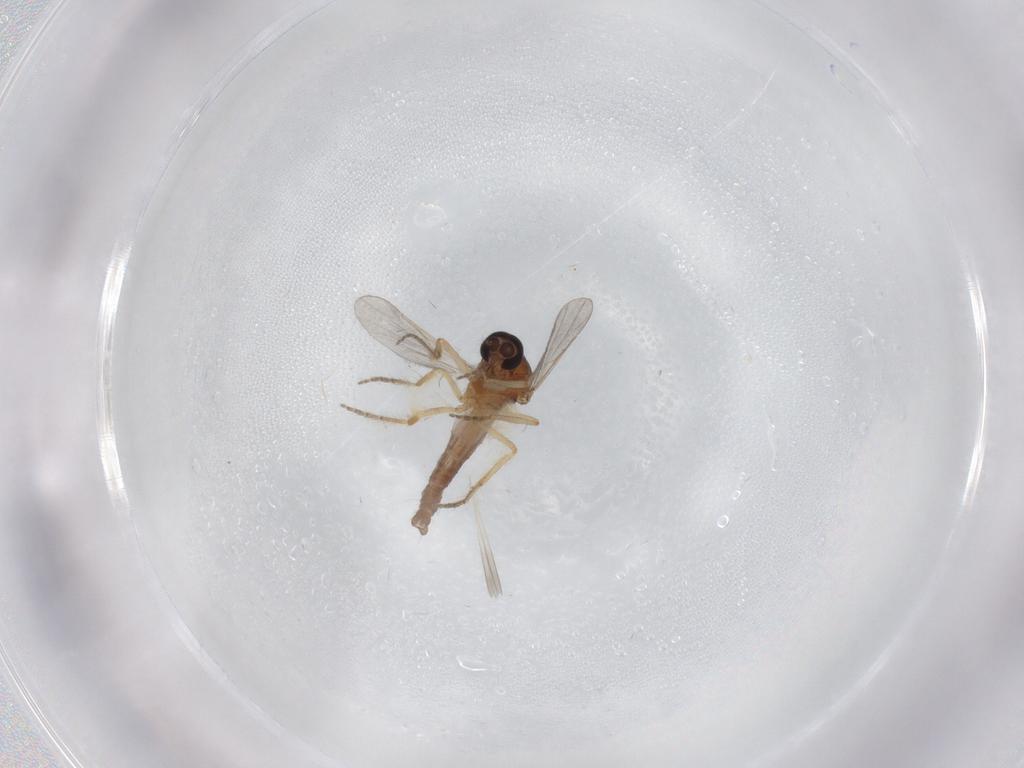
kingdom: Animalia
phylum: Arthropoda
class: Insecta
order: Diptera
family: Ceratopogonidae
